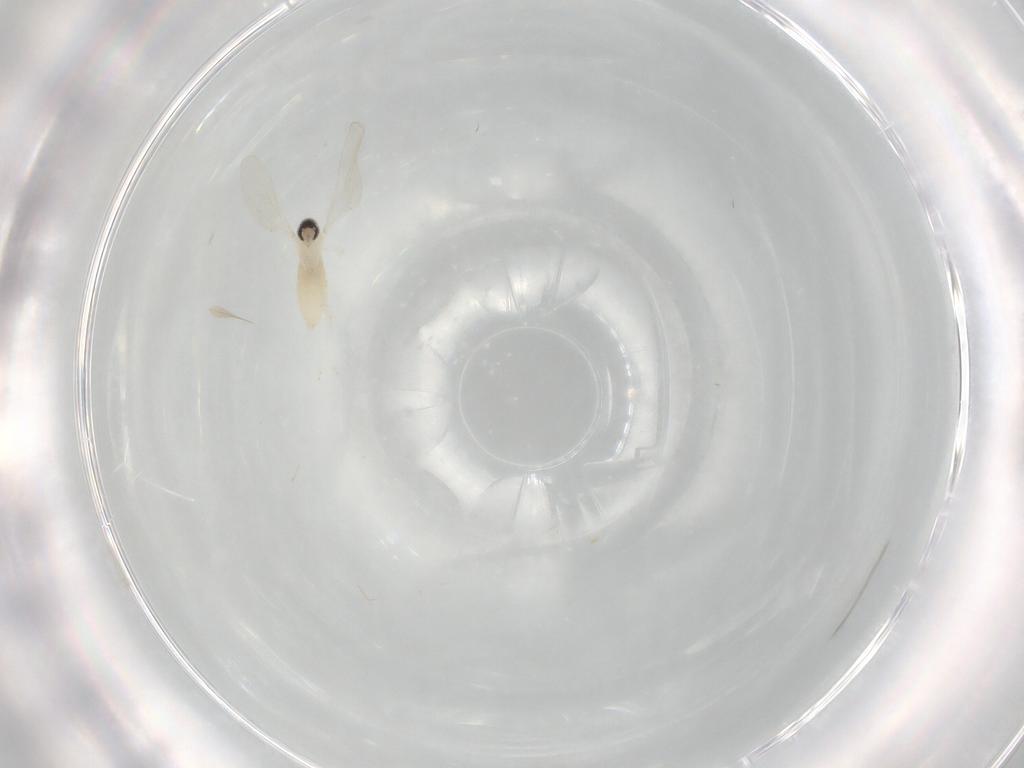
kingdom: Animalia
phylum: Arthropoda
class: Insecta
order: Diptera
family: Cecidomyiidae
